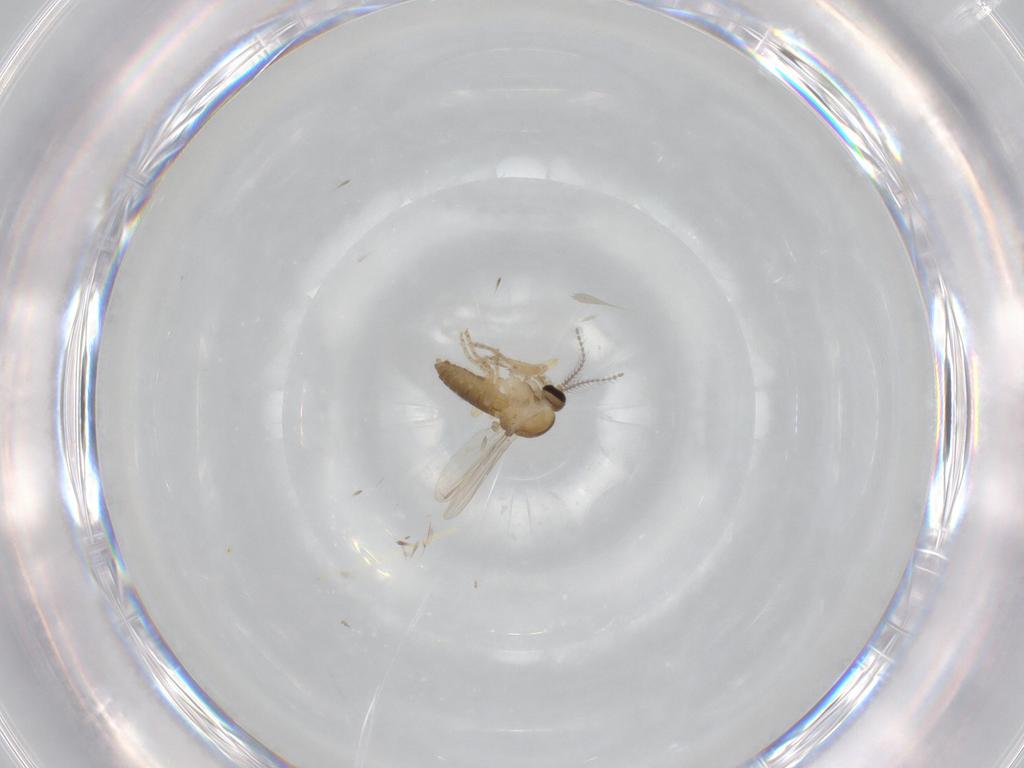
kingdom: Animalia
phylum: Arthropoda
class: Insecta
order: Diptera
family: Ceratopogonidae
